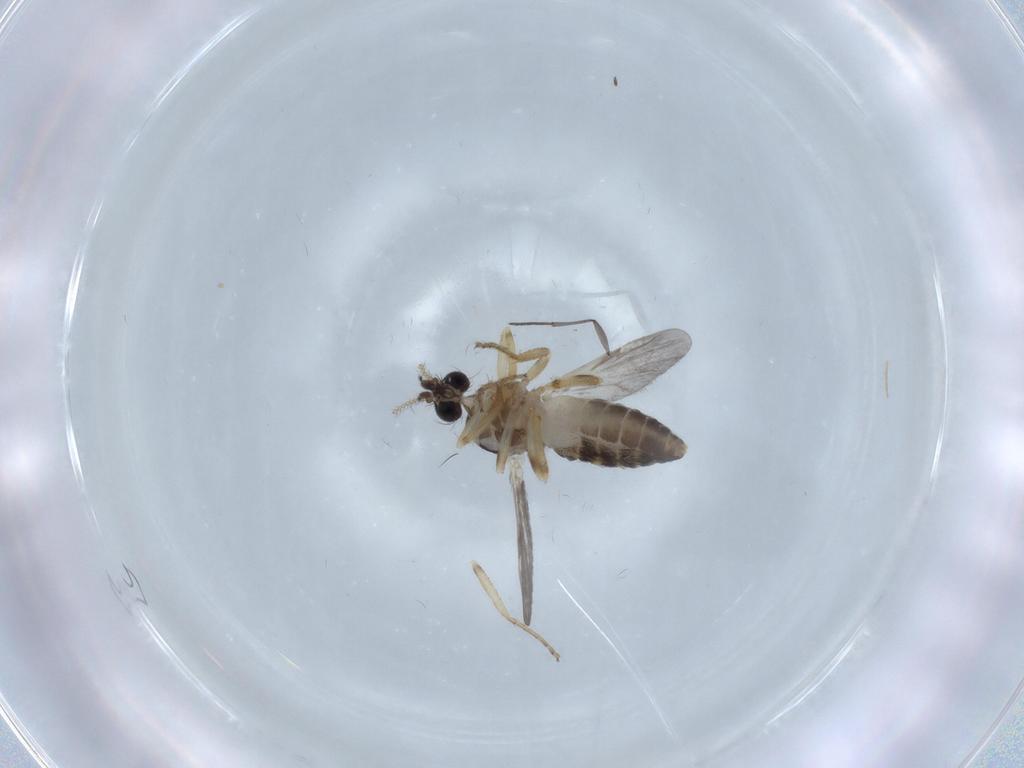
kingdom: Animalia
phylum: Arthropoda
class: Insecta
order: Diptera
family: Ceratopogonidae
